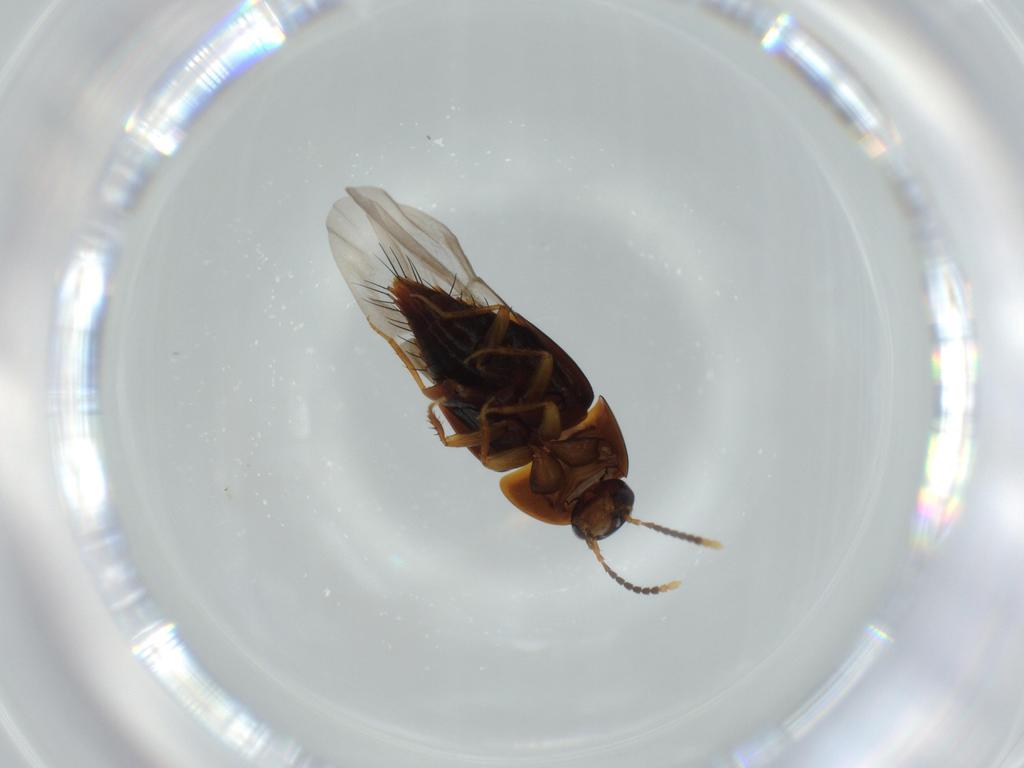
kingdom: Animalia
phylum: Arthropoda
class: Insecta
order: Coleoptera
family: Staphylinidae
